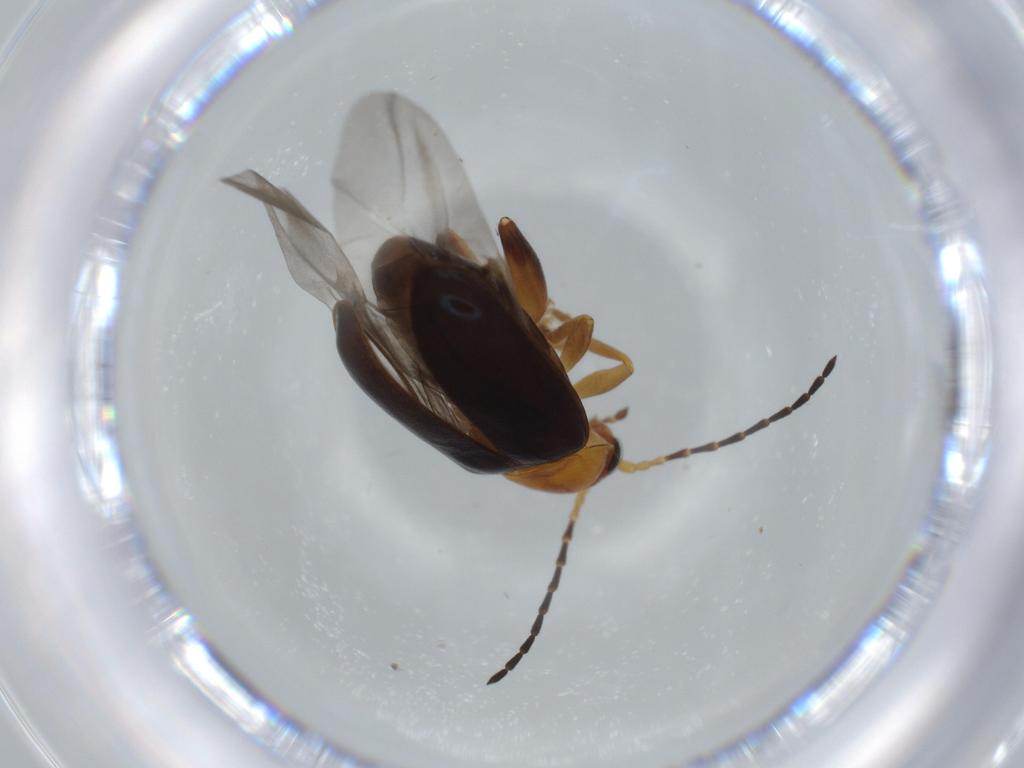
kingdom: Animalia
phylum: Arthropoda
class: Insecta
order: Coleoptera
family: Chrysomelidae
